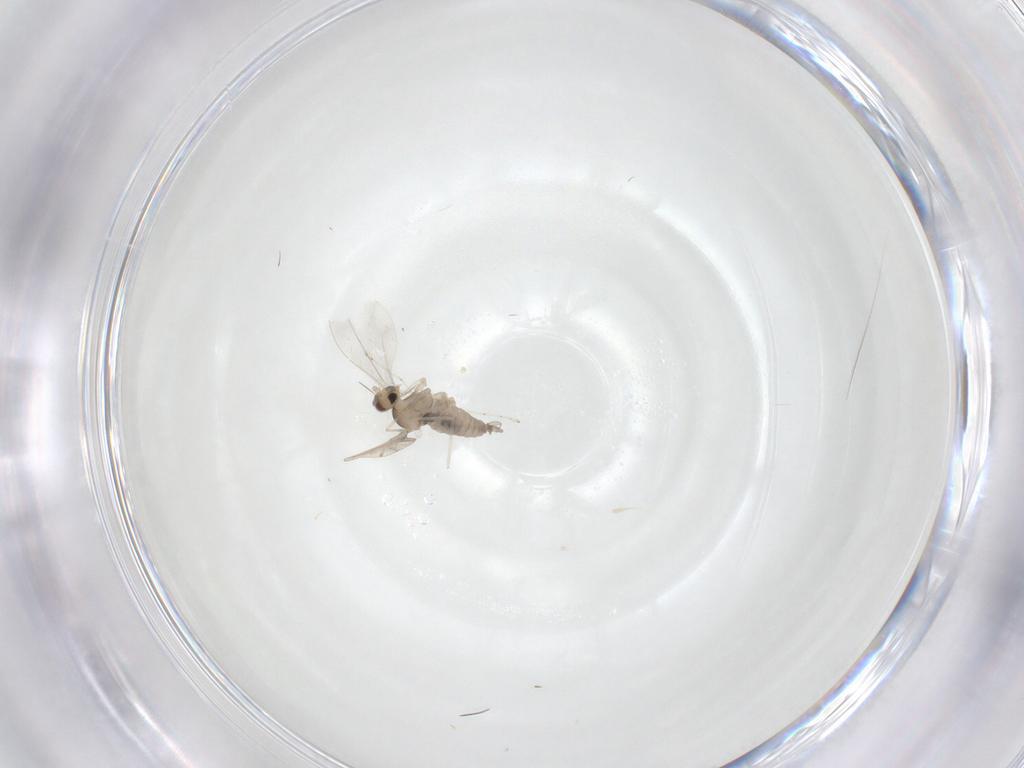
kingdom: Animalia
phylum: Arthropoda
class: Insecta
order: Diptera
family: Cecidomyiidae
